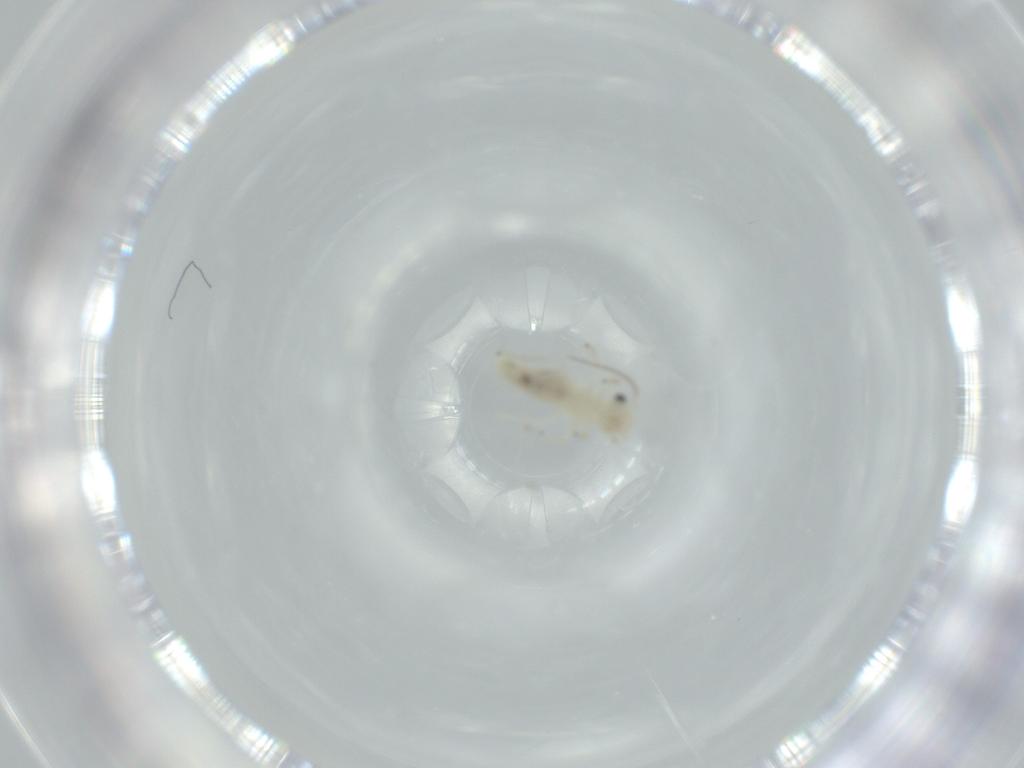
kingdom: Animalia
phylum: Arthropoda
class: Insecta
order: Psocodea
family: Caeciliusidae
